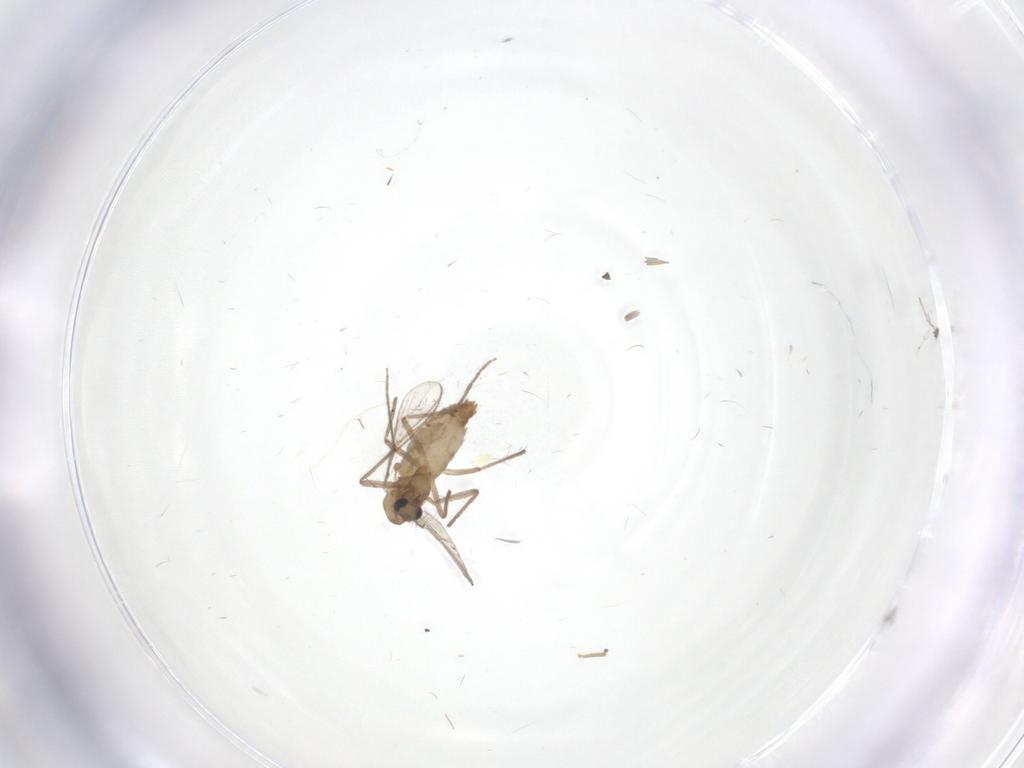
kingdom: Animalia
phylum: Arthropoda
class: Insecta
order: Diptera
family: Chironomidae
